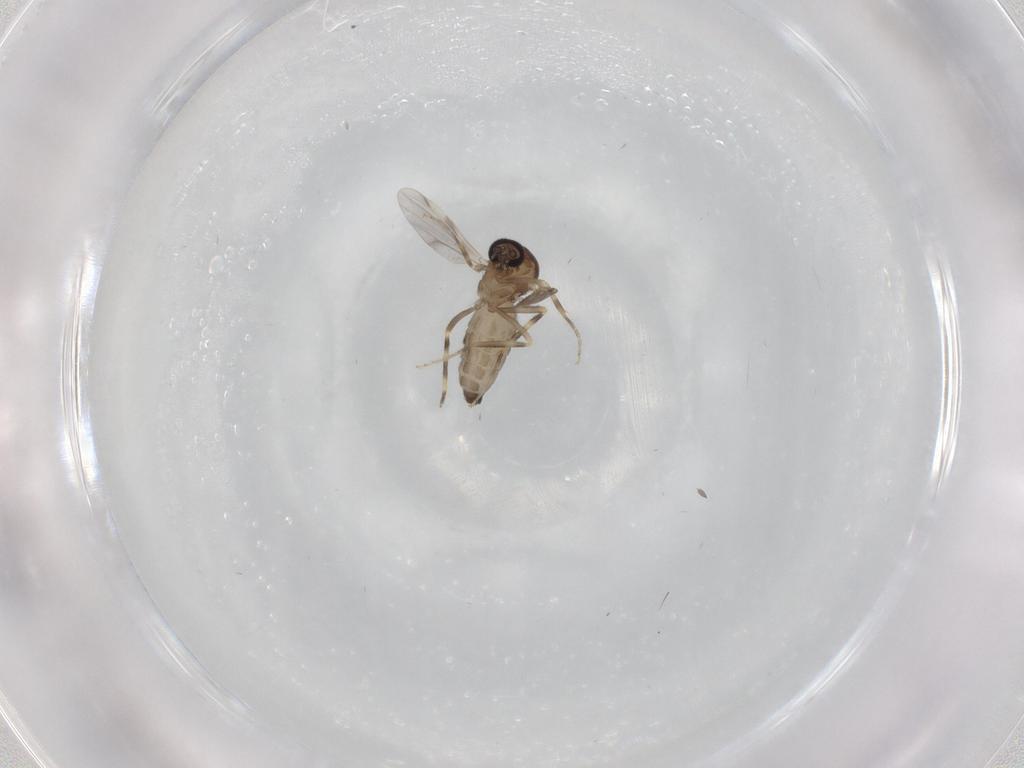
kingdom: Animalia
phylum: Arthropoda
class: Insecta
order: Diptera
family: Ceratopogonidae
